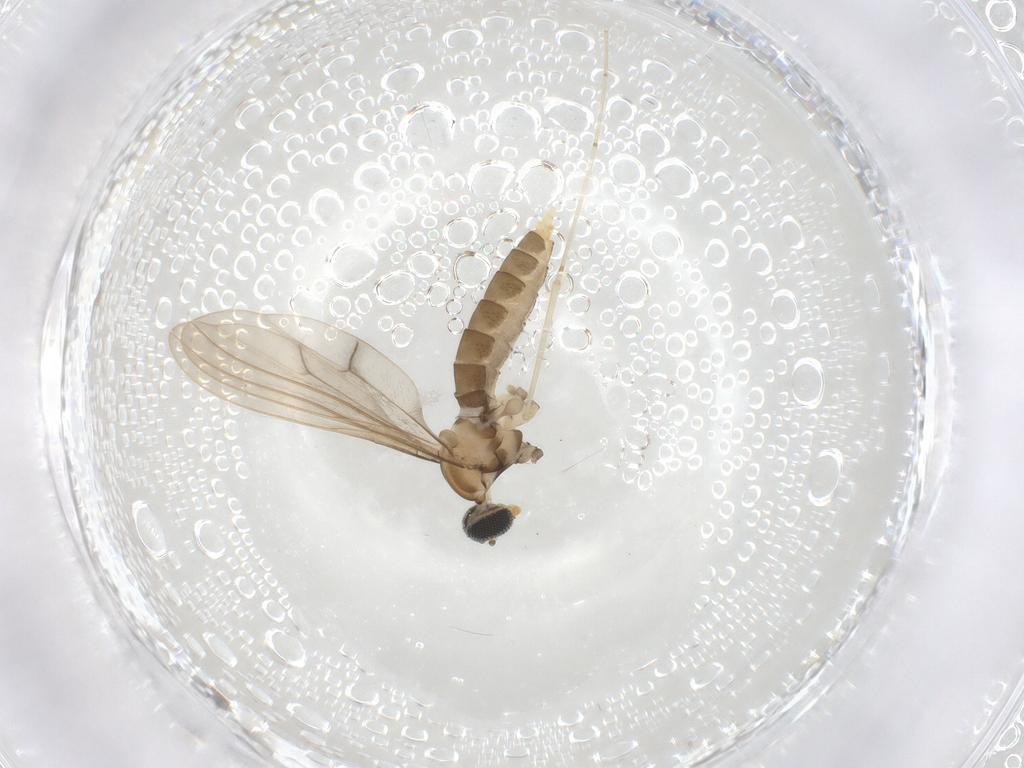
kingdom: Animalia
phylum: Arthropoda
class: Insecta
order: Diptera
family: Cecidomyiidae
